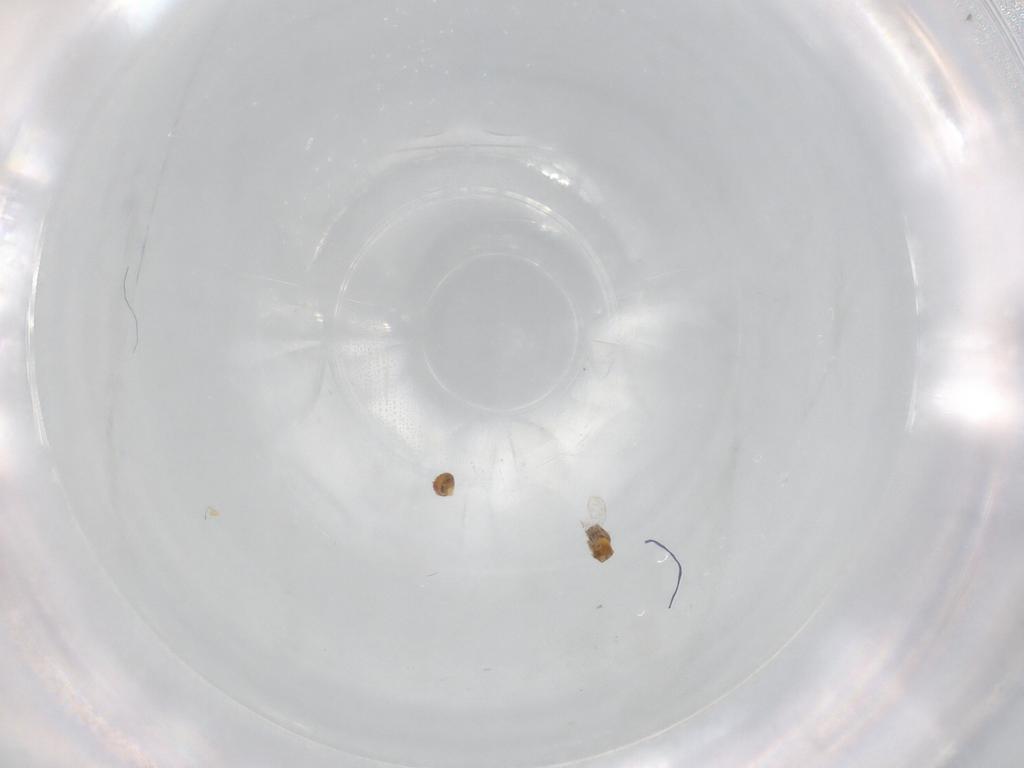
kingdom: Animalia
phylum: Arthropoda
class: Insecta
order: Hymenoptera
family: Trichogrammatidae
